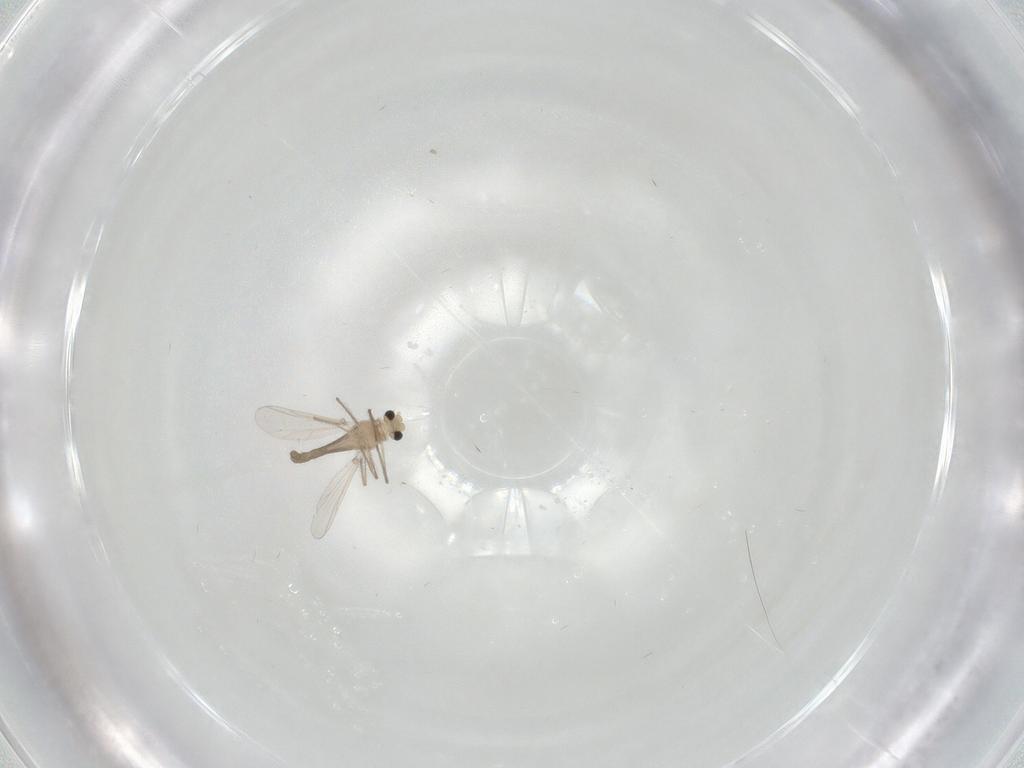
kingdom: Animalia
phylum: Arthropoda
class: Insecta
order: Diptera
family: Chironomidae
